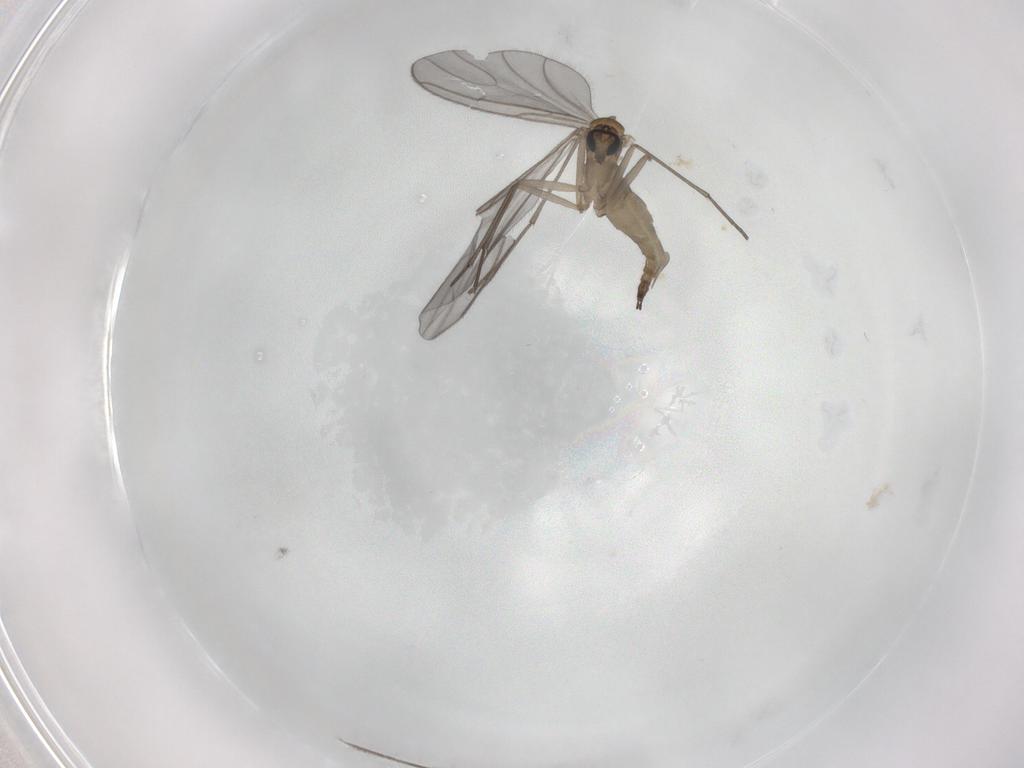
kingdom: Animalia
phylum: Arthropoda
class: Insecta
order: Diptera
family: Sciaridae
